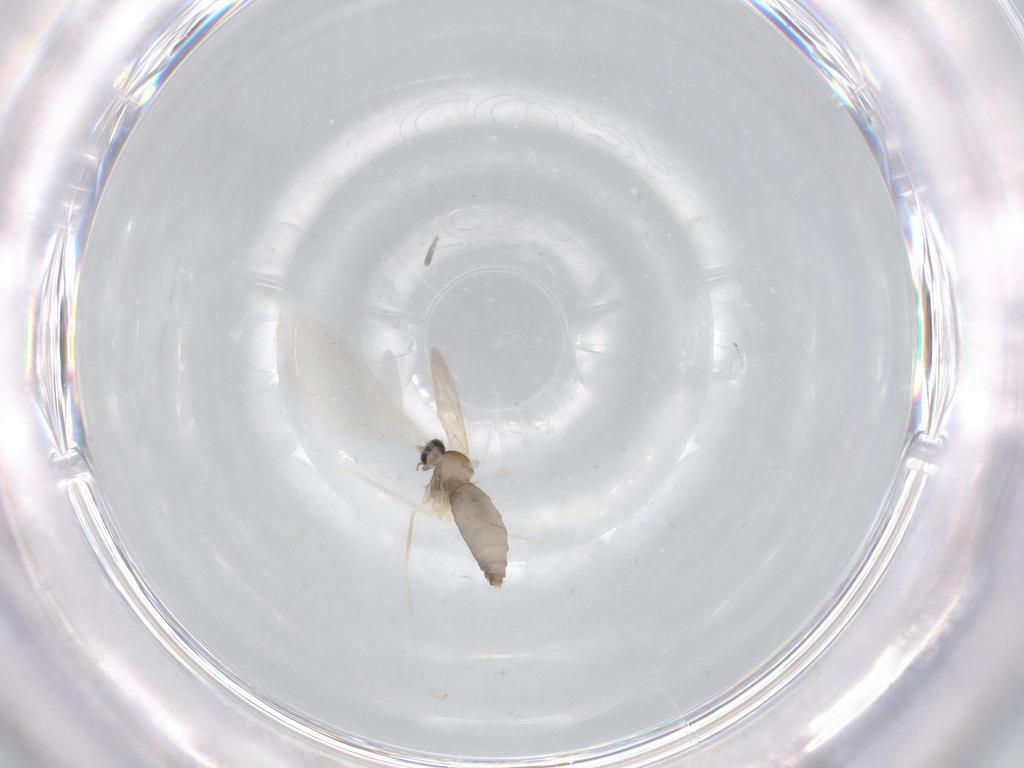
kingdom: Animalia
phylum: Arthropoda
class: Insecta
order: Diptera
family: Cecidomyiidae
